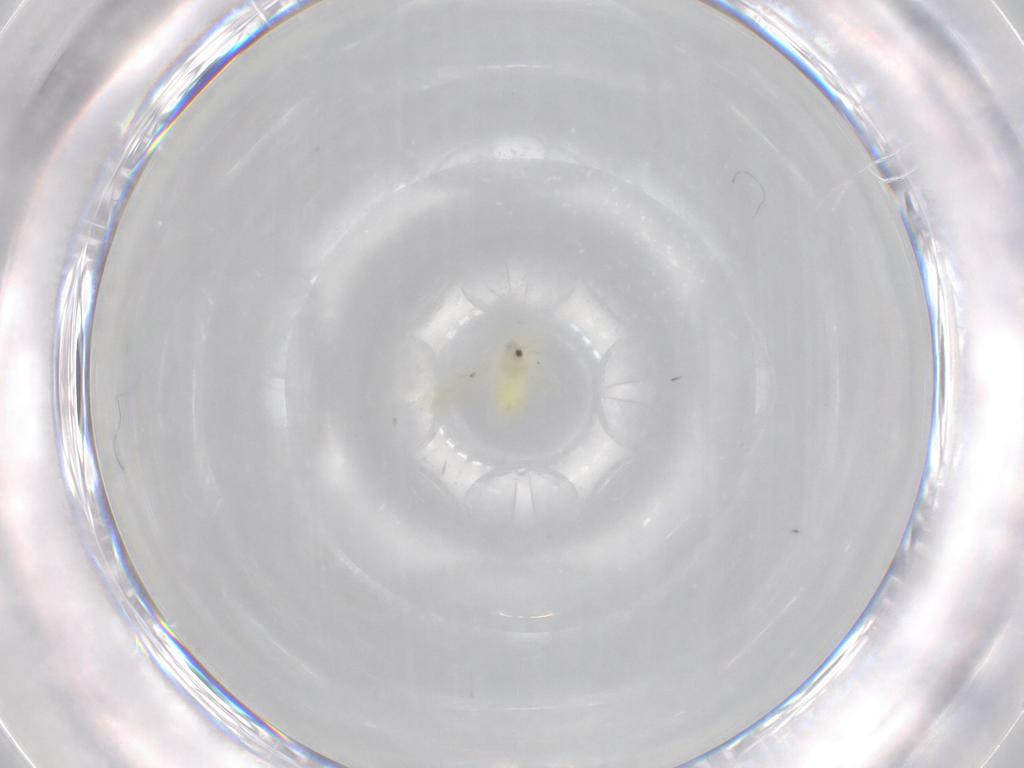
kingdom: Animalia
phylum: Arthropoda
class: Insecta
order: Hemiptera
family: Aleyrodidae
